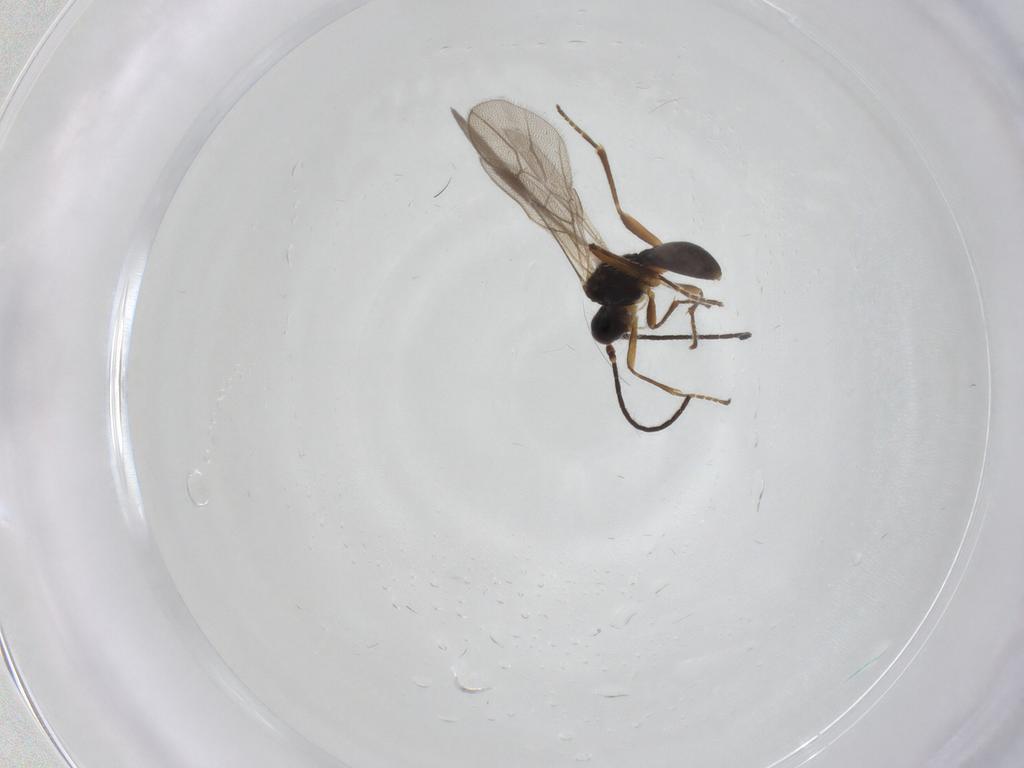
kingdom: Animalia
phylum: Arthropoda
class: Insecta
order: Hymenoptera
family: Braconidae
